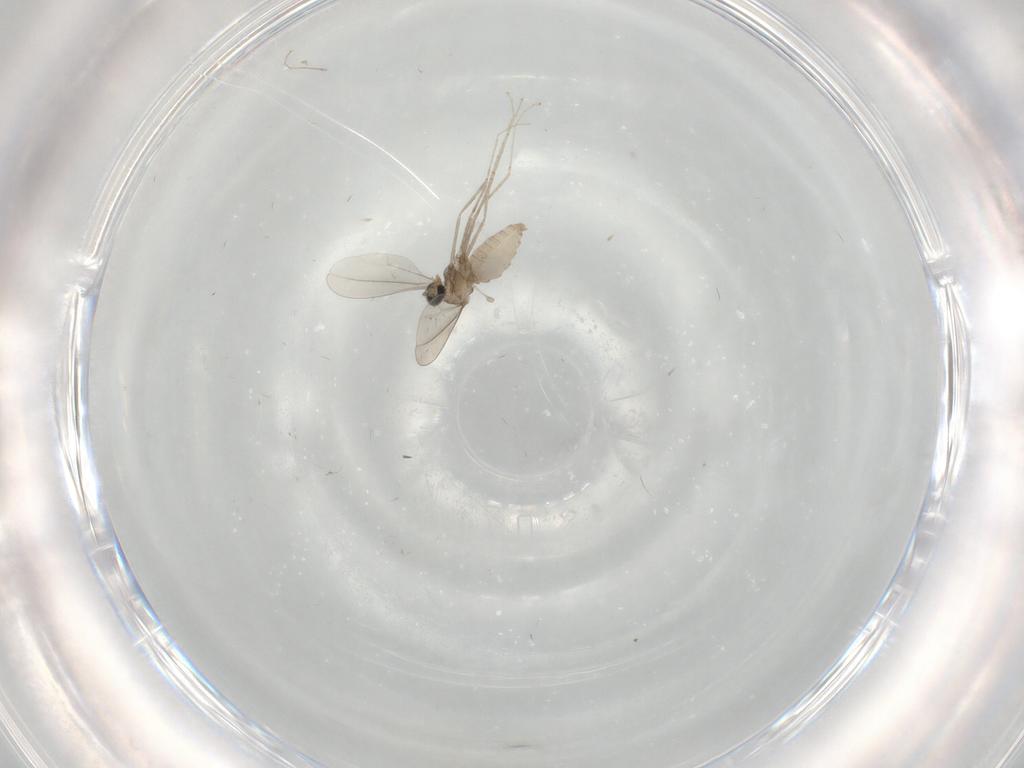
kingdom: Animalia
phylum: Arthropoda
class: Insecta
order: Diptera
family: Cecidomyiidae
